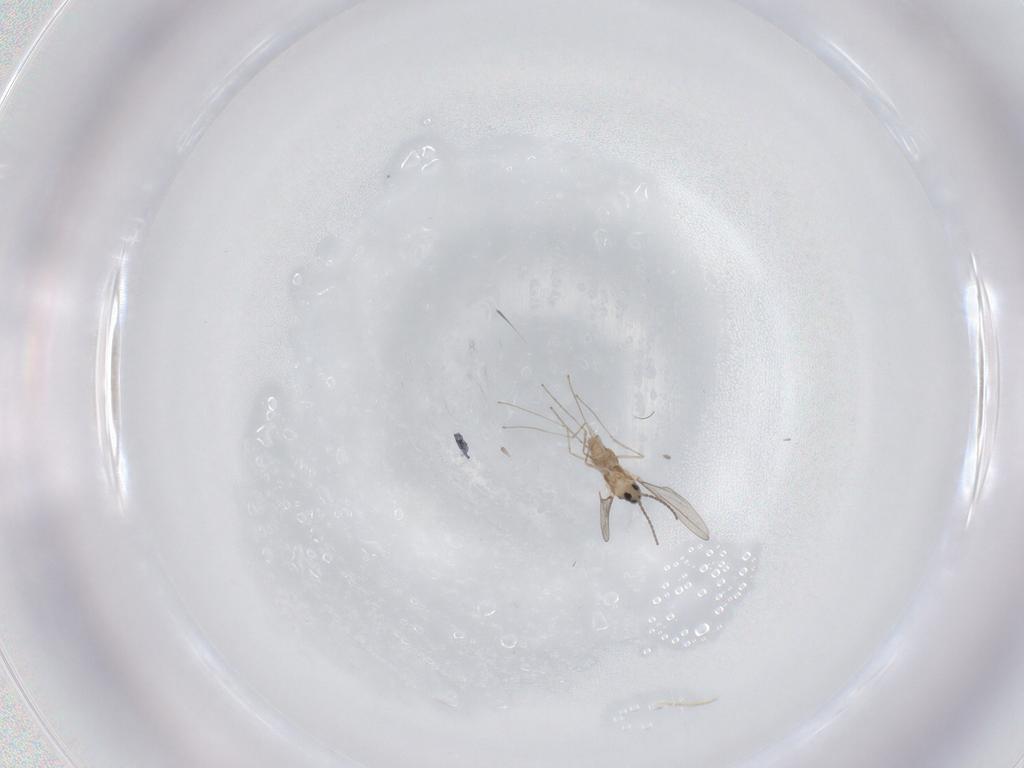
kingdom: Animalia
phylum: Arthropoda
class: Insecta
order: Diptera
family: Cecidomyiidae
